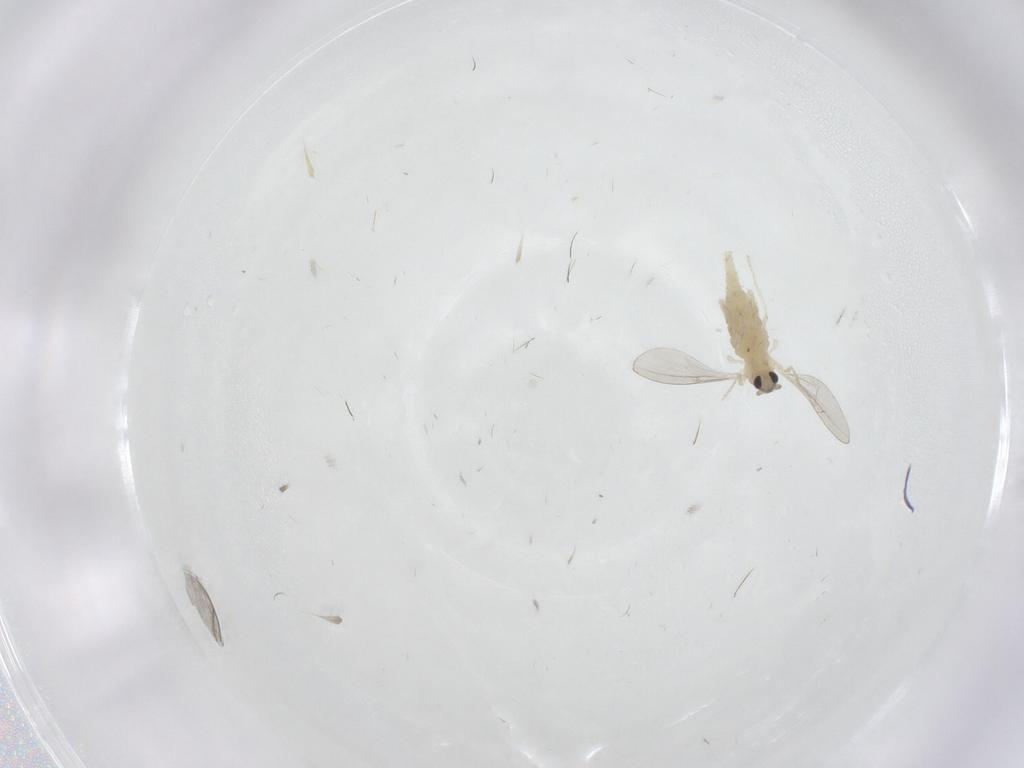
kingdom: Animalia
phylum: Arthropoda
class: Insecta
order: Diptera
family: Cecidomyiidae
